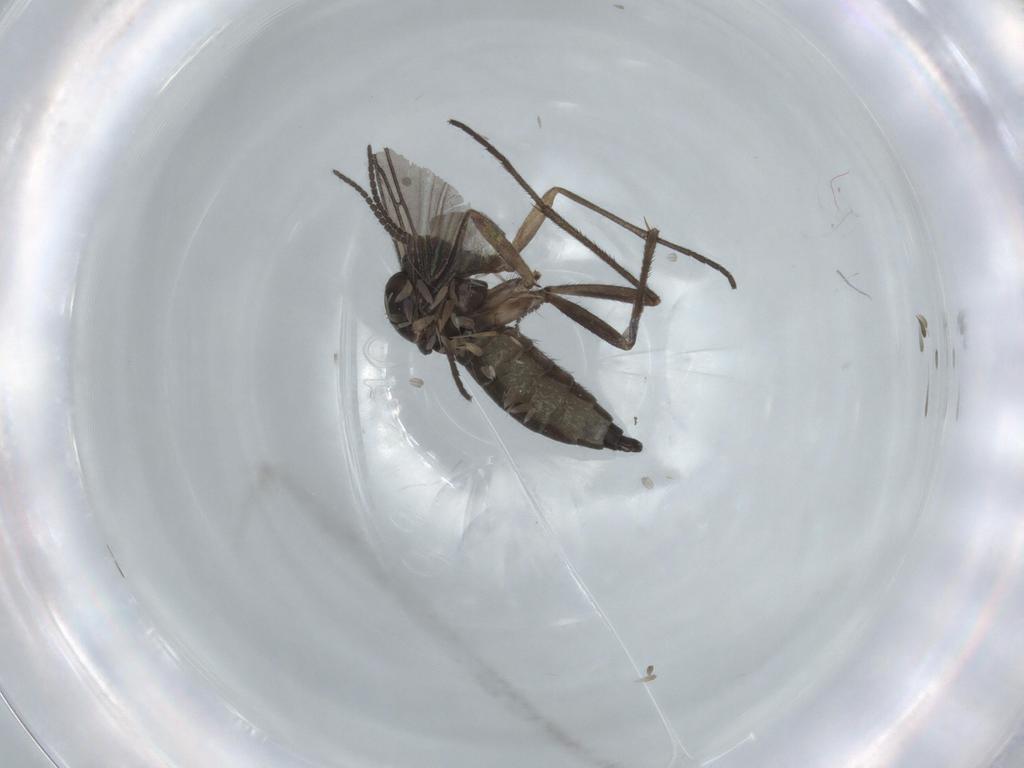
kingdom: Animalia
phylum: Arthropoda
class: Insecta
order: Diptera
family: Sciaridae
